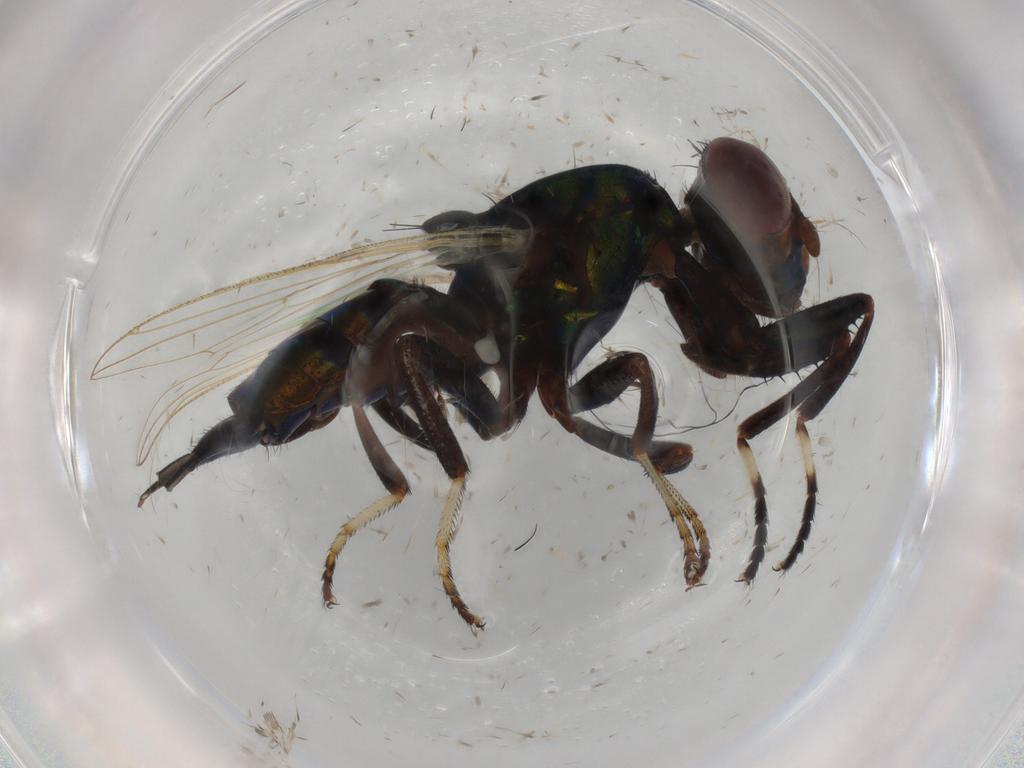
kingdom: Animalia
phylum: Arthropoda
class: Insecta
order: Diptera
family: Ulidiidae
